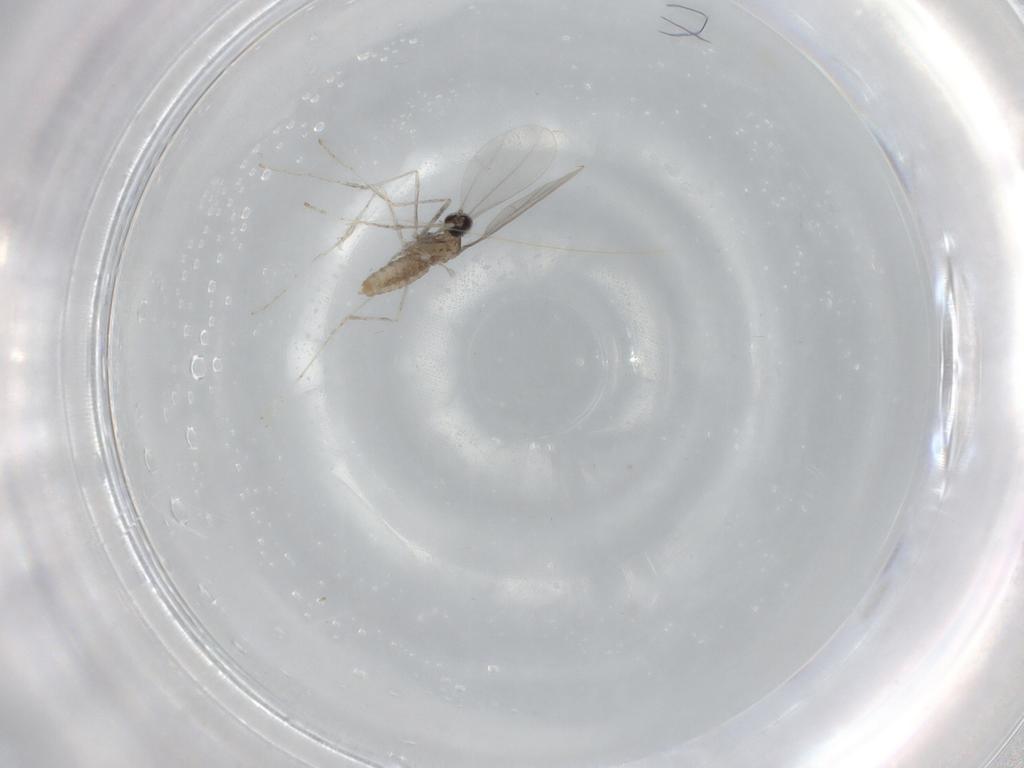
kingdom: Animalia
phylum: Arthropoda
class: Insecta
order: Diptera
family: Cecidomyiidae
